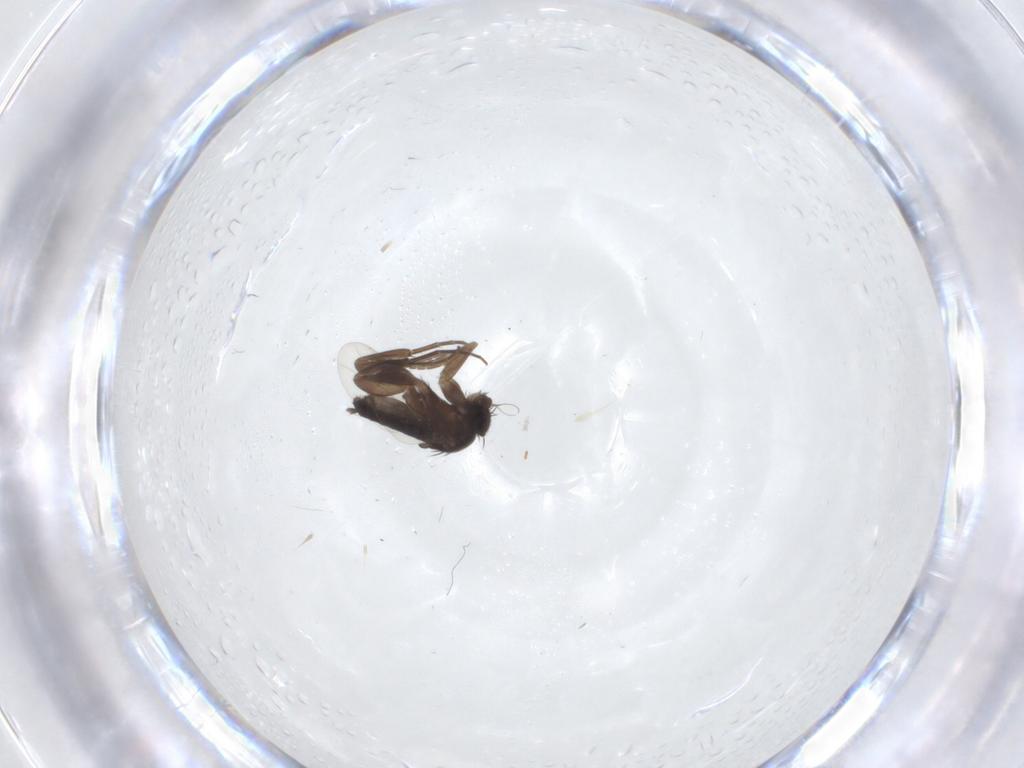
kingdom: Animalia
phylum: Arthropoda
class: Insecta
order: Diptera
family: Phoridae
